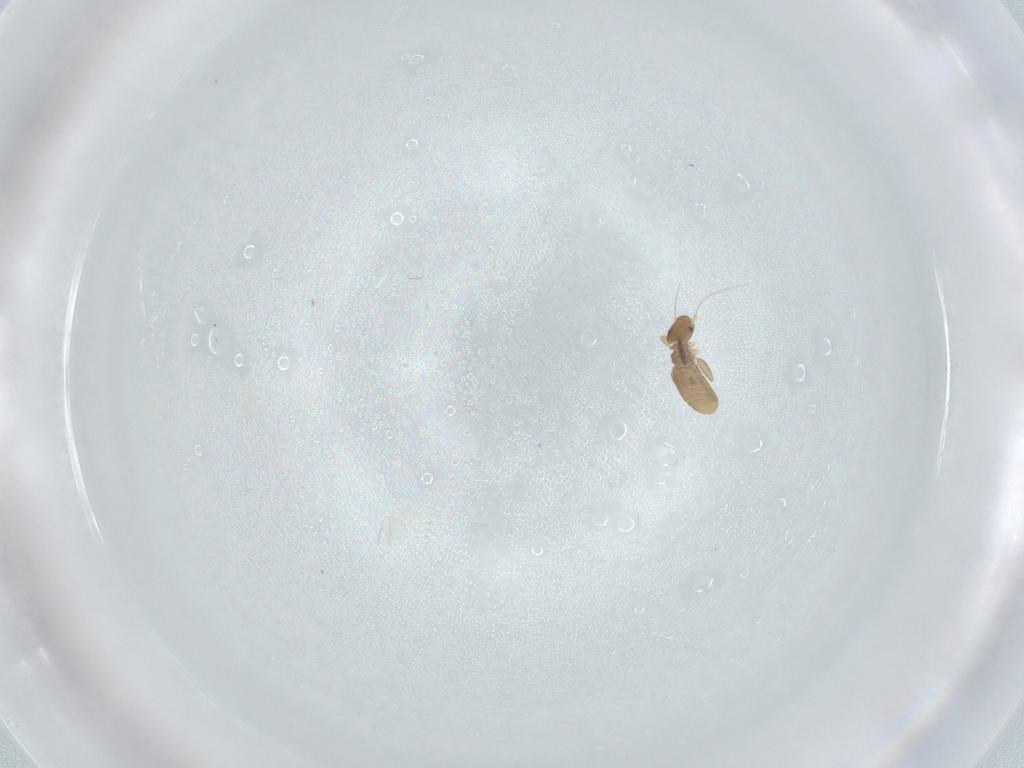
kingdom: Animalia
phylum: Arthropoda
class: Insecta
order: Psocodea
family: Liposcelididae
